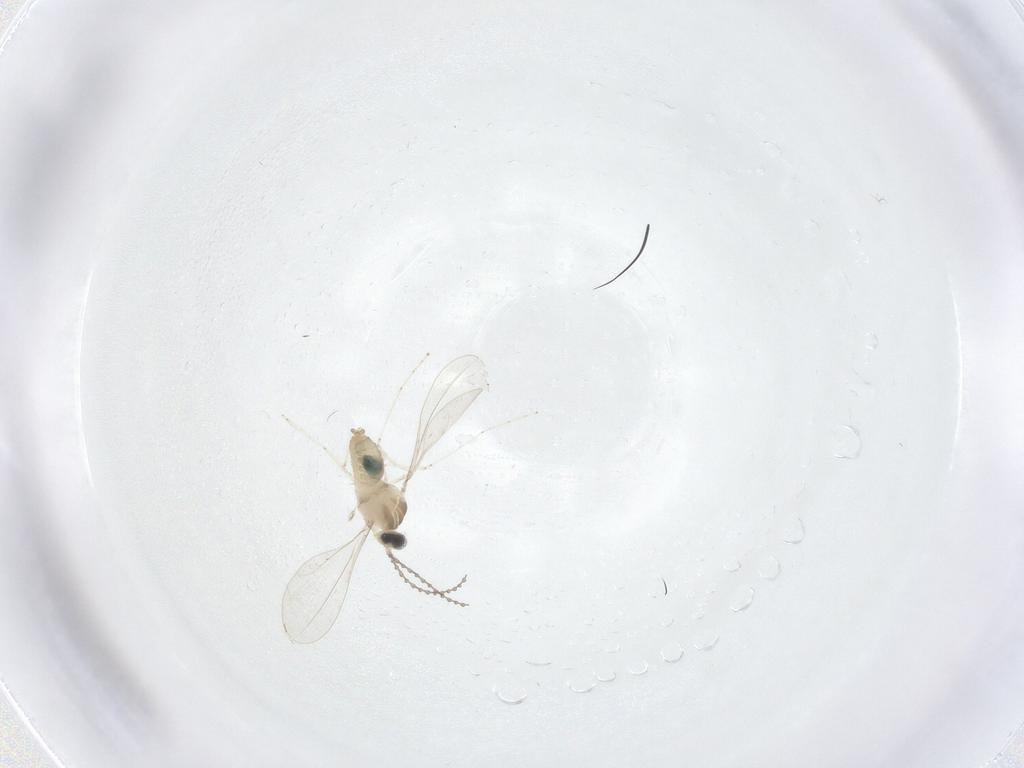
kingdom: Animalia
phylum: Arthropoda
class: Insecta
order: Diptera
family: Cecidomyiidae
